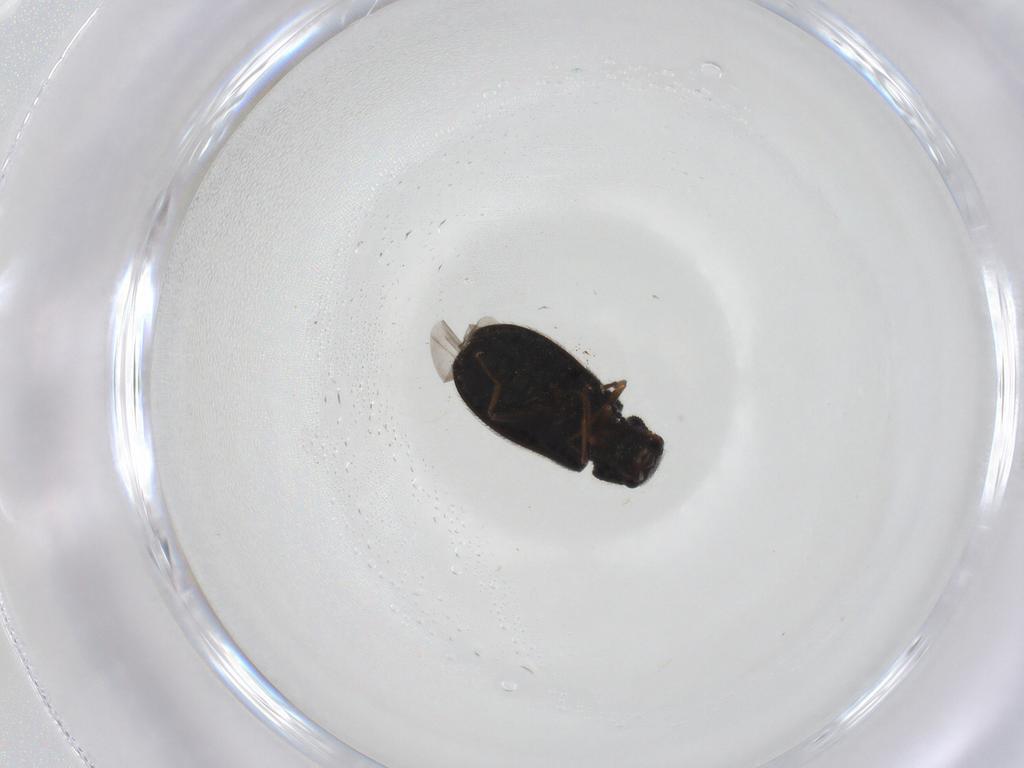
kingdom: Animalia
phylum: Arthropoda
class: Insecta
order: Coleoptera
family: Melyridae
